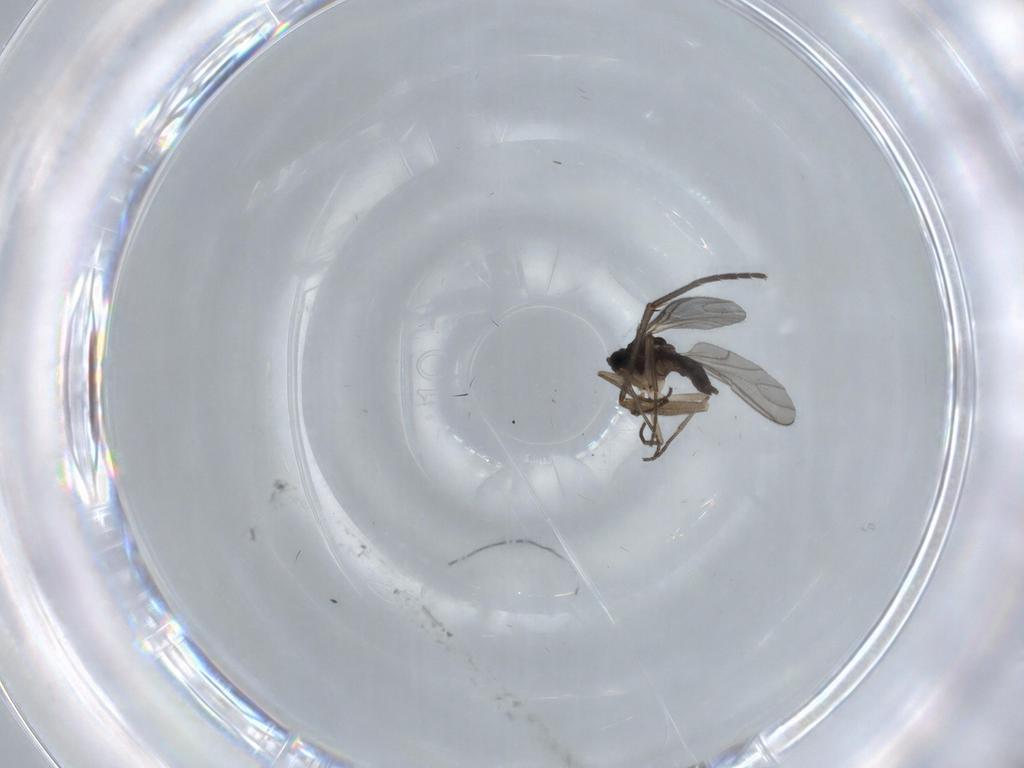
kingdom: Animalia
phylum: Arthropoda
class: Insecta
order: Diptera
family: Sciaridae
